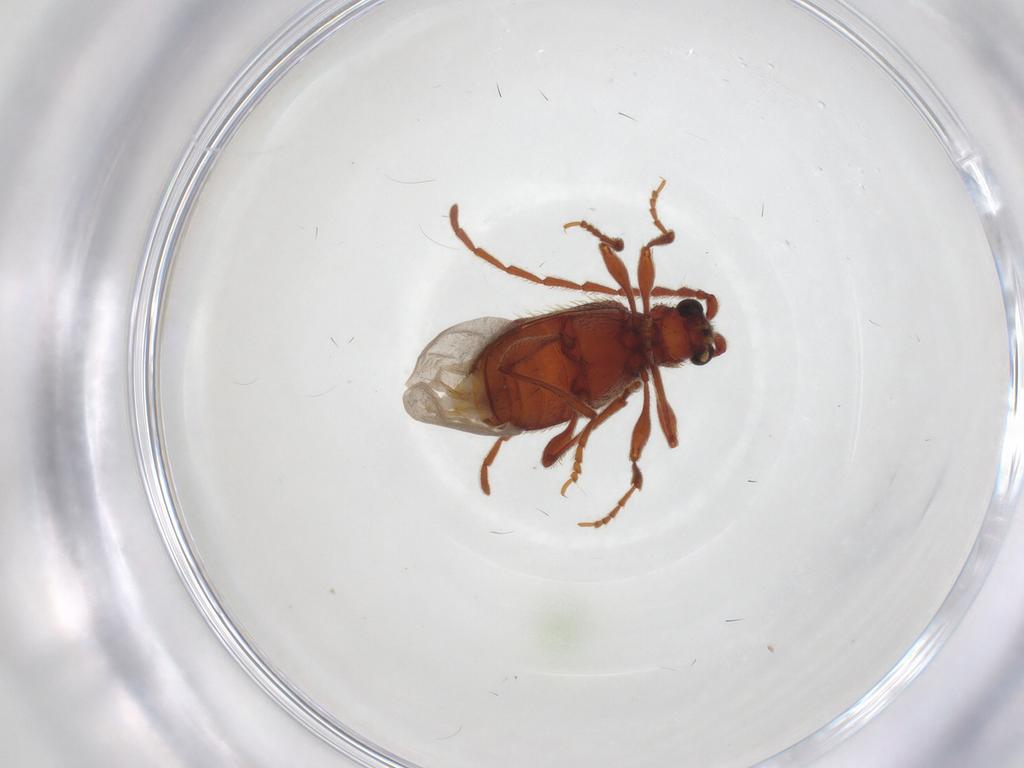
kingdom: Animalia
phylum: Arthropoda
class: Insecta
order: Coleoptera
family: Ptinidae
